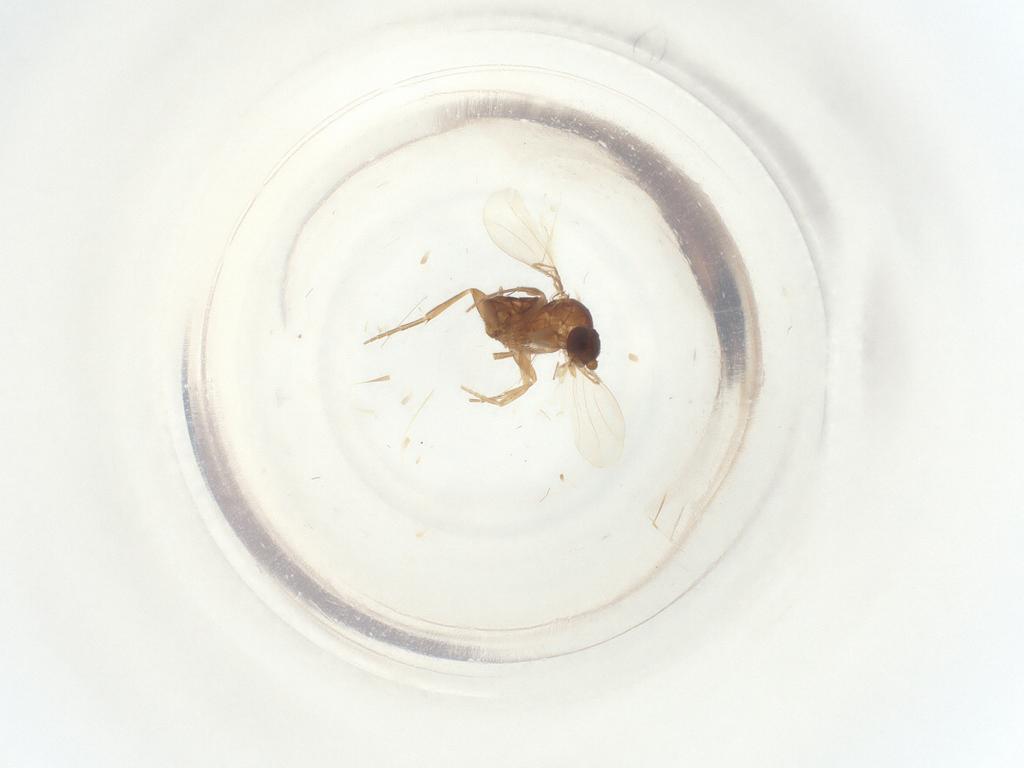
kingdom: Animalia
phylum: Arthropoda
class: Insecta
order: Diptera
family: Phoridae
